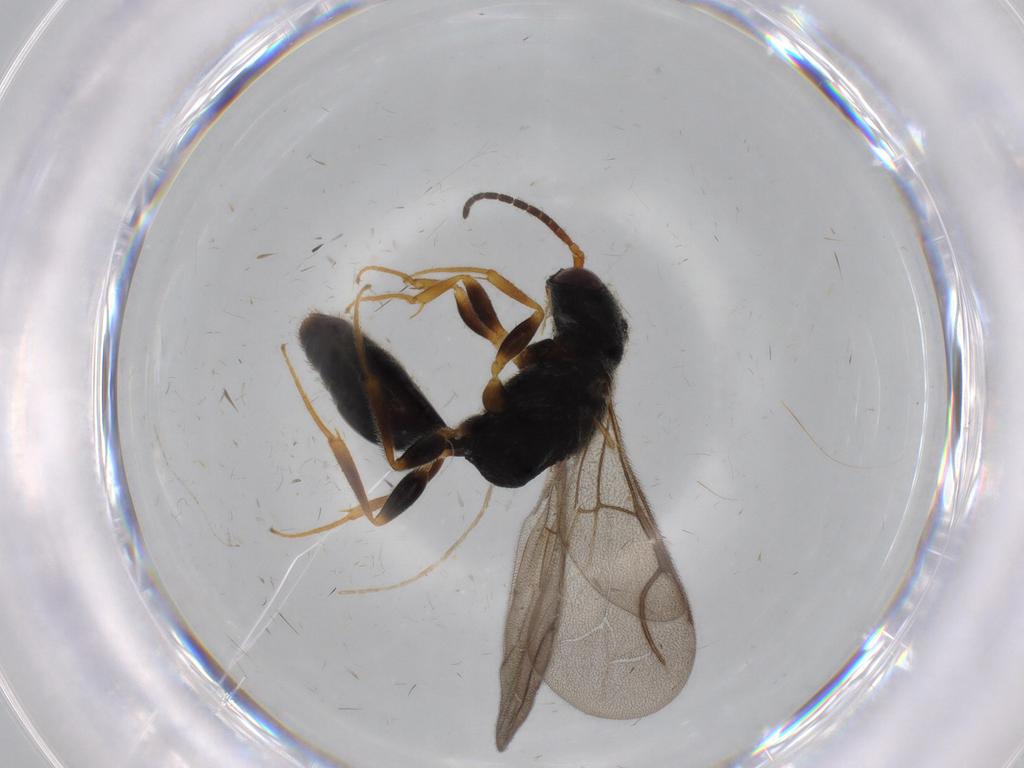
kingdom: Animalia
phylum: Arthropoda
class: Insecta
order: Hymenoptera
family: Bethylidae
